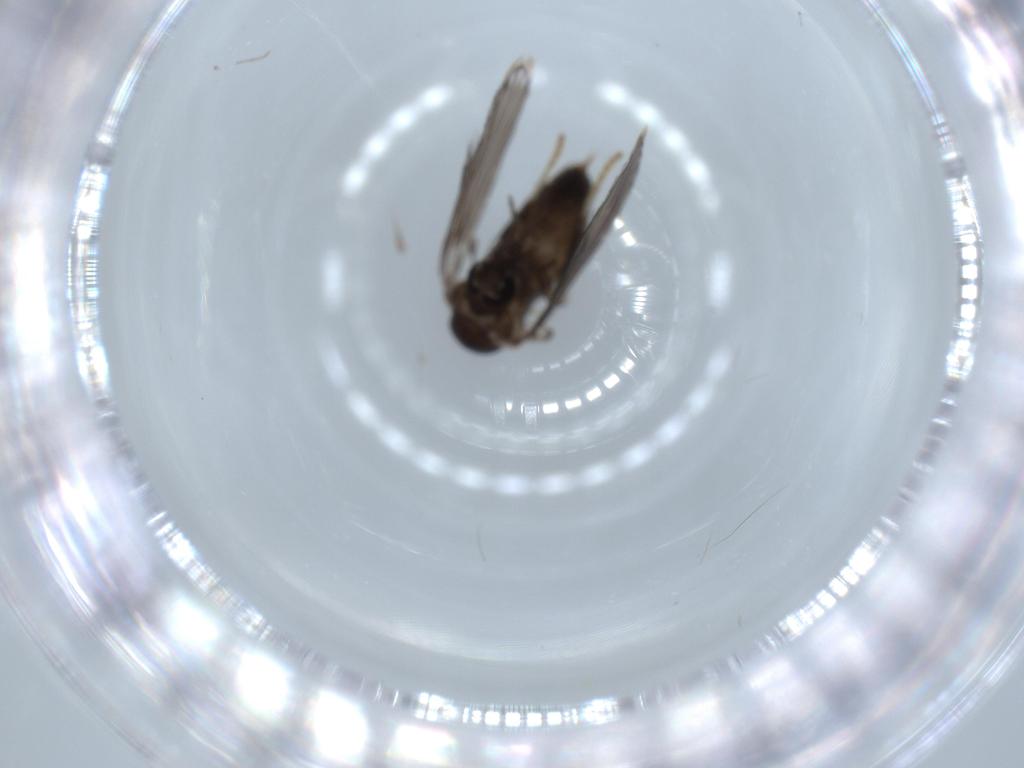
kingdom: Animalia
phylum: Arthropoda
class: Insecta
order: Diptera
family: Psychodidae
